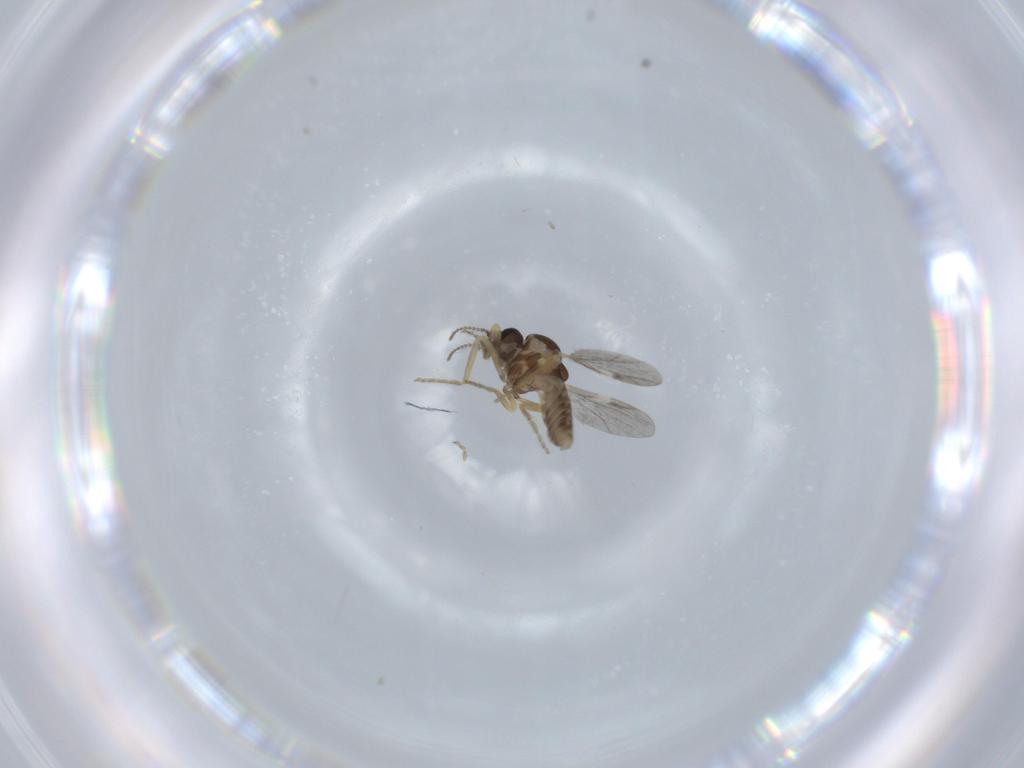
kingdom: Animalia
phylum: Arthropoda
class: Insecta
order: Diptera
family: Ceratopogonidae
